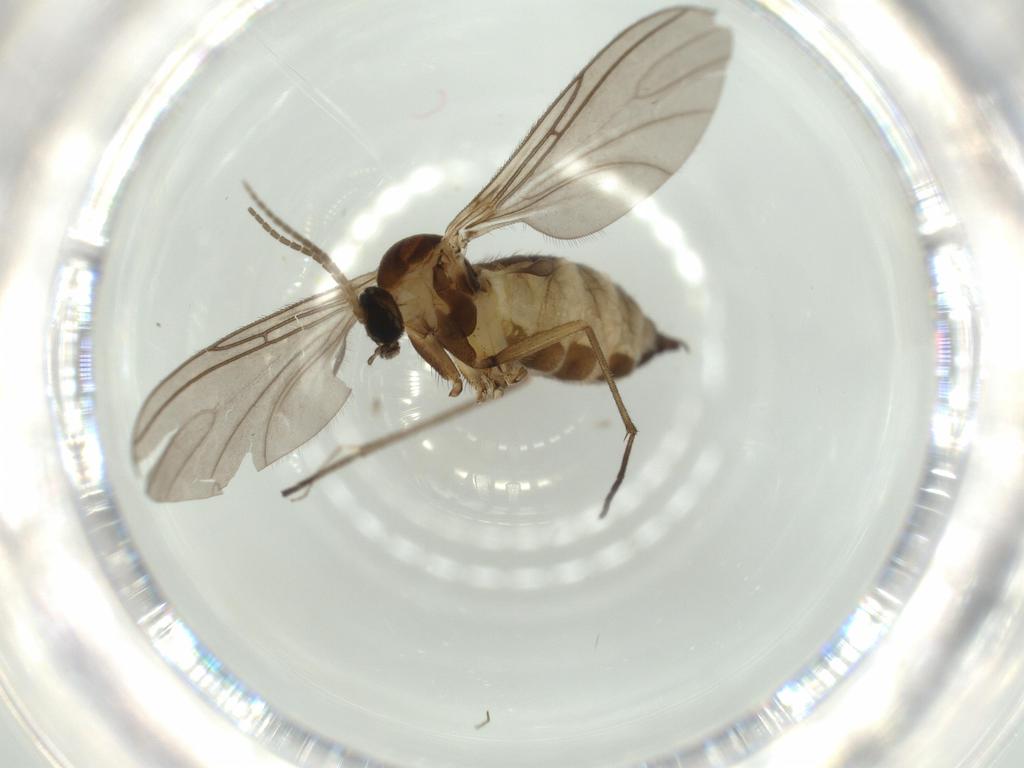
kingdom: Animalia
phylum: Arthropoda
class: Insecta
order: Diptera
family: Sciaridae
